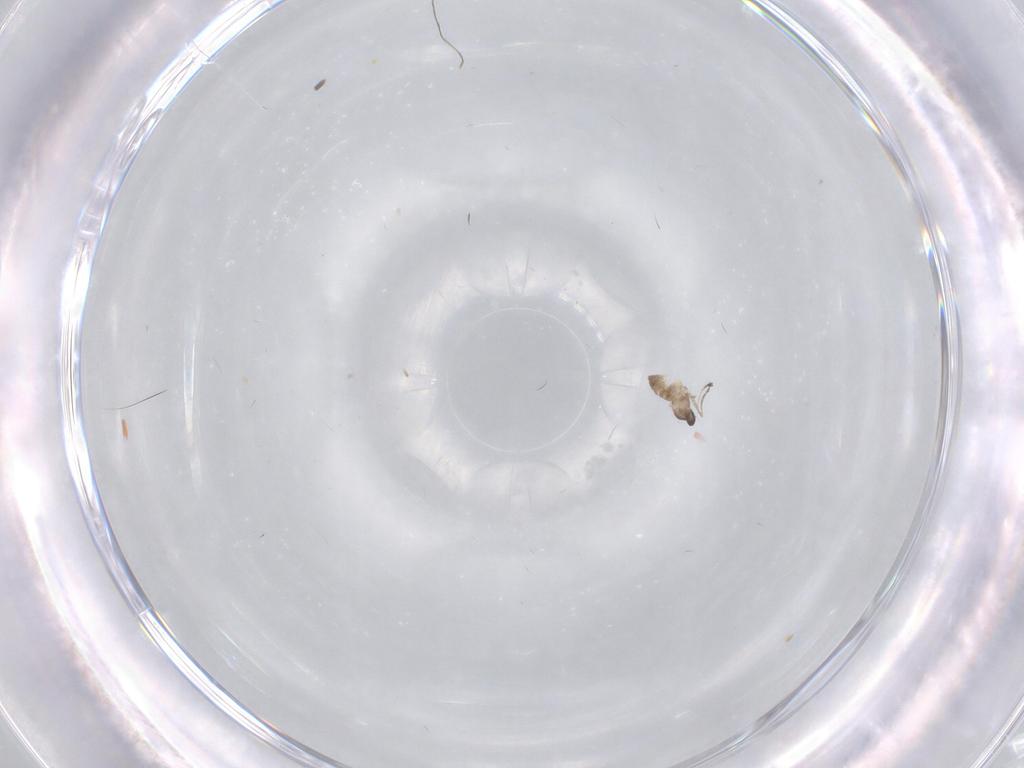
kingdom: Animalia
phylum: Arthropoda
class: Insecta
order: Diptera
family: Cecidomyiidae
